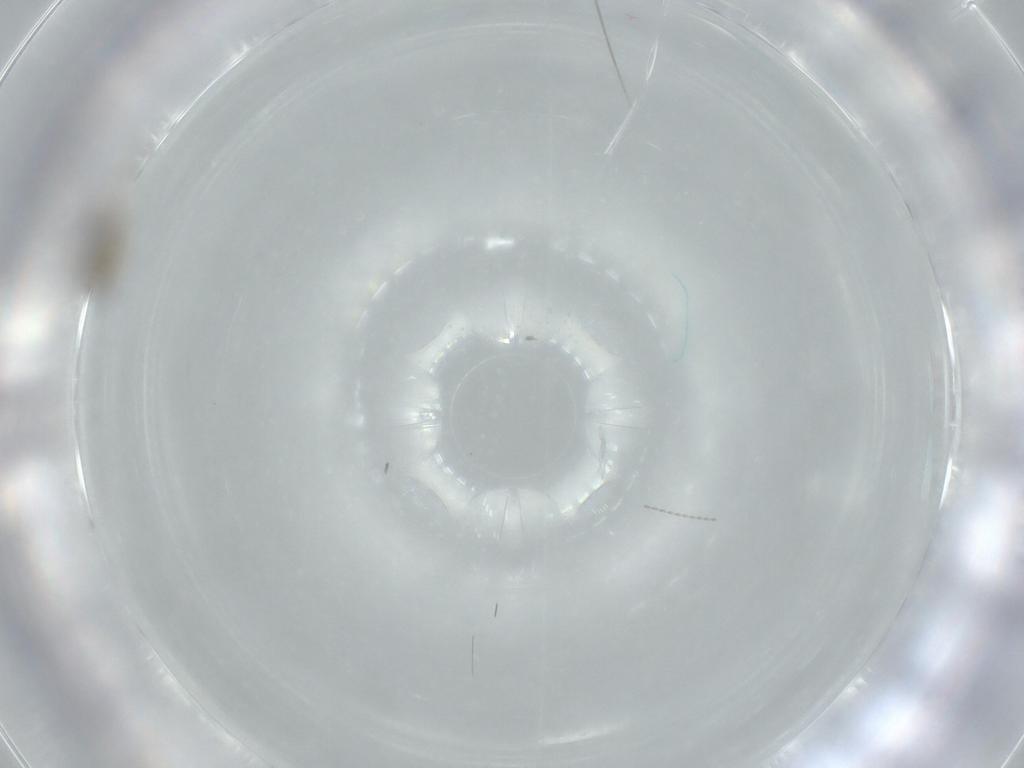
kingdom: Animalia
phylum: Arthropoda
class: Insecta
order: Diptera
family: Cecidomyiidae
